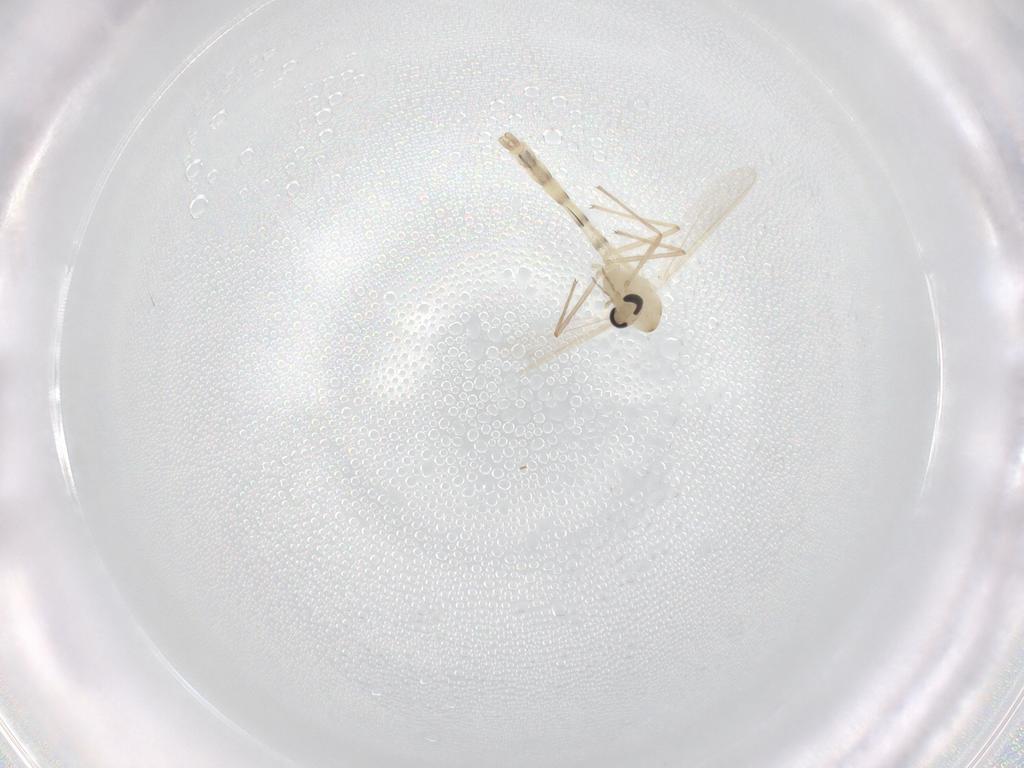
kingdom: Animalia
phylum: Arthropoda
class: Insecta
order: Diptera
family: Chironomidae
